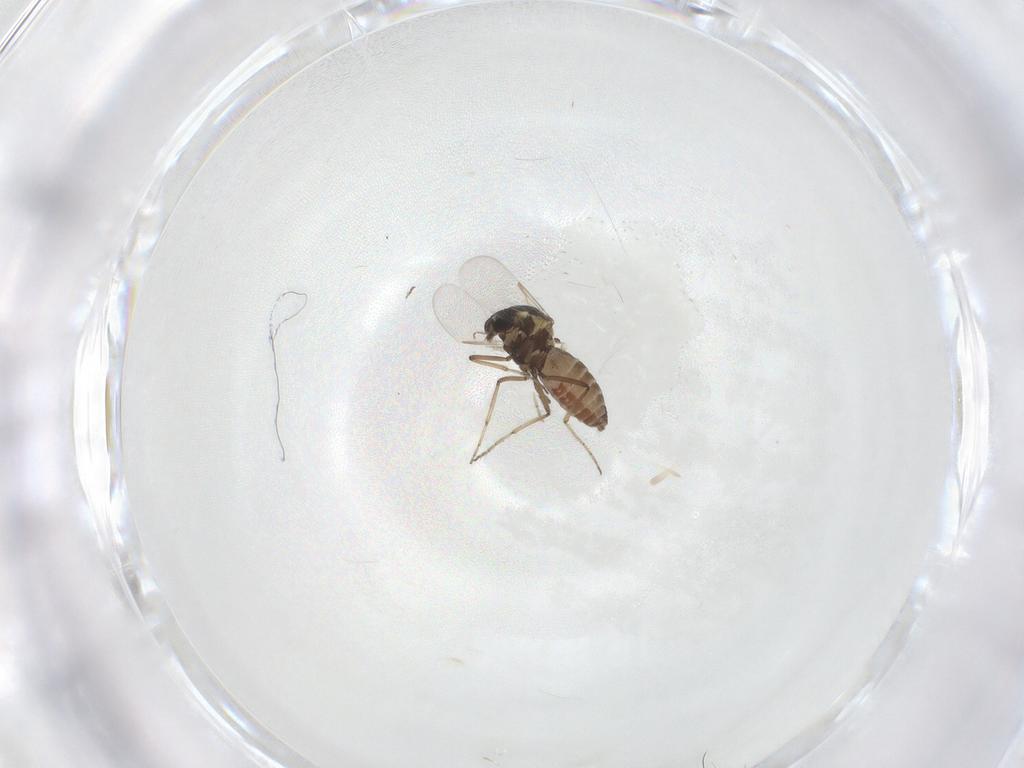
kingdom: Animalia
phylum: Arthropoda
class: Insecta
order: Diptera
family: Ceratopogonidae
